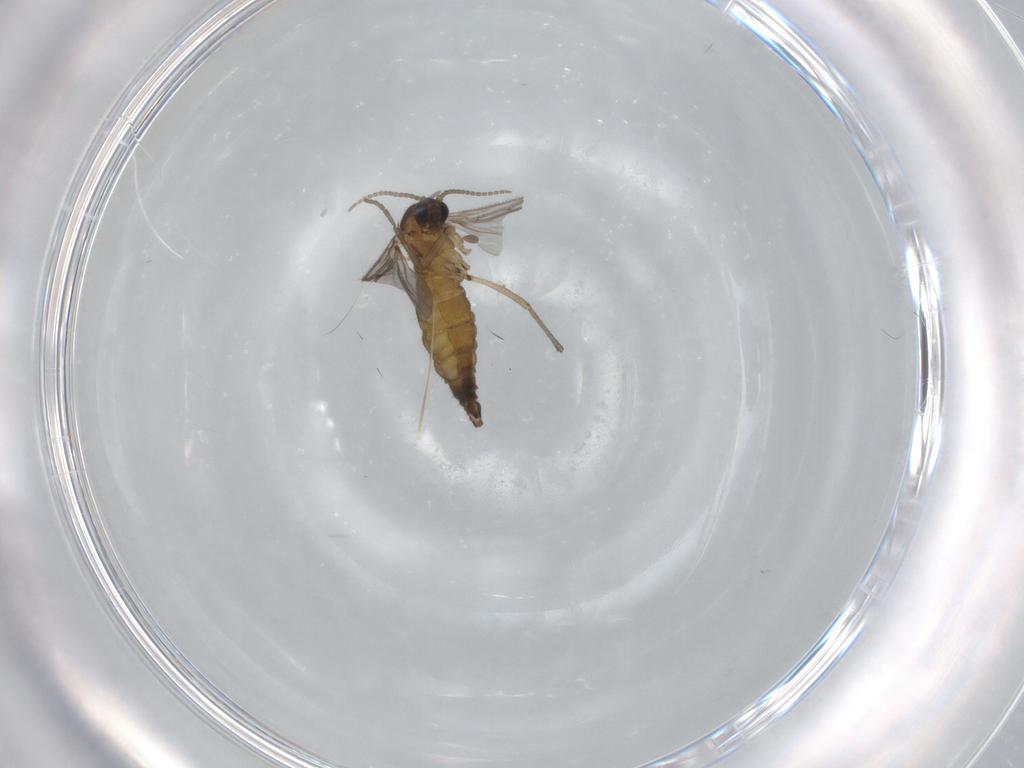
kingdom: Animalia
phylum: Arthropoda
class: Insecta
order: Diptera
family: Sciaridae
